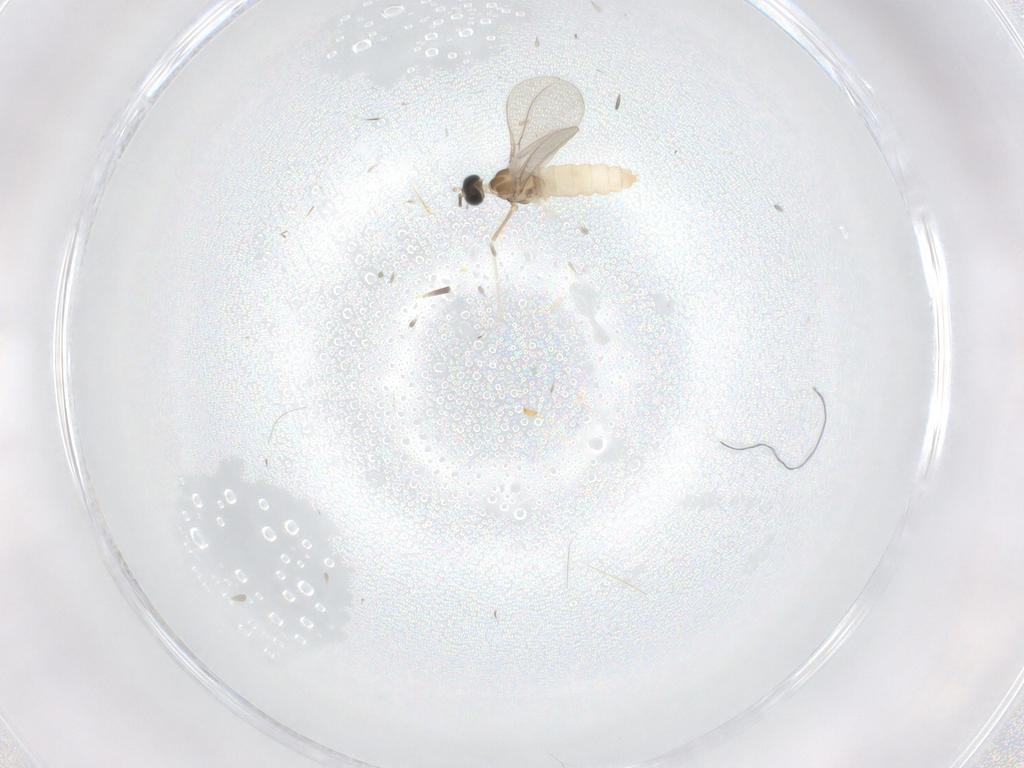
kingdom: Animalia
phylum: Arthropoda
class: Insecta
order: Diptera
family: Cecidomyiidae
